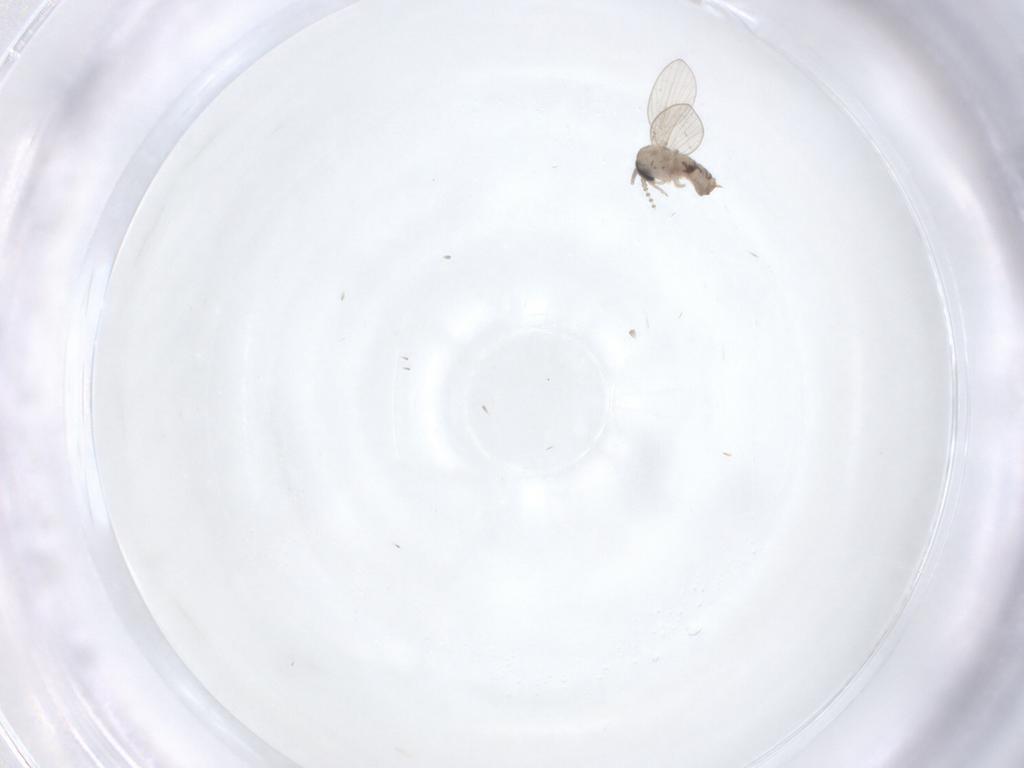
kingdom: Animalia
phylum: Arthropoda
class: Insecta
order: Diptera
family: Psychodidae
